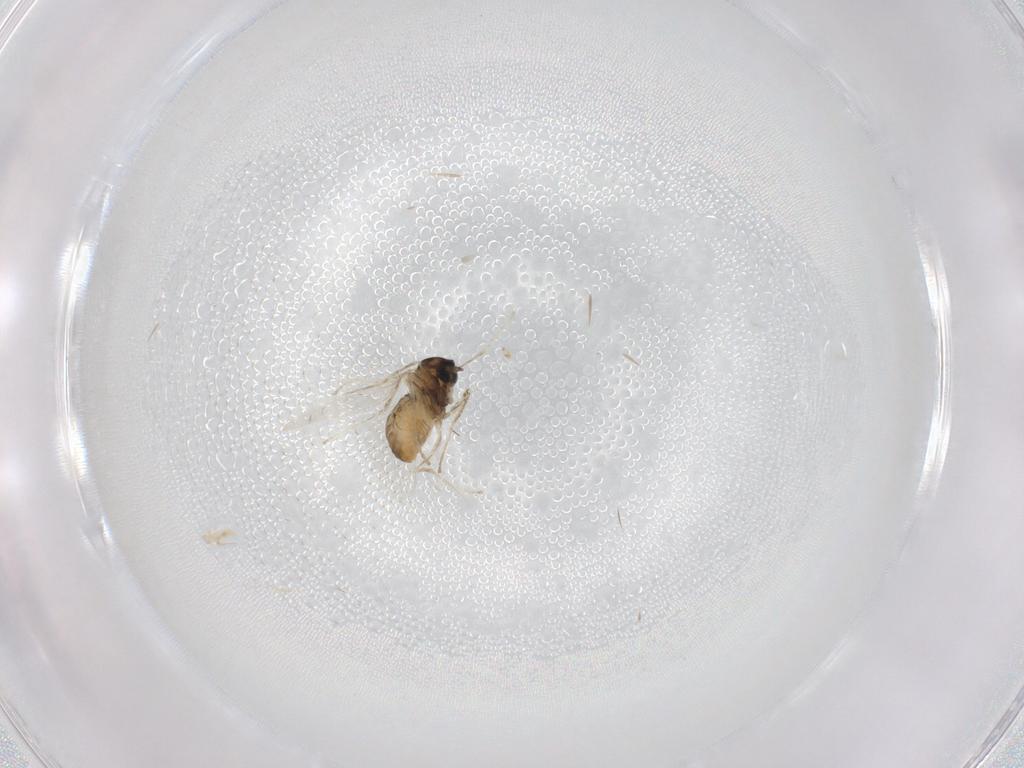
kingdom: Animalia
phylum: Arthropoda
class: Insecta
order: Diptera
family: Cecidomyiidae
